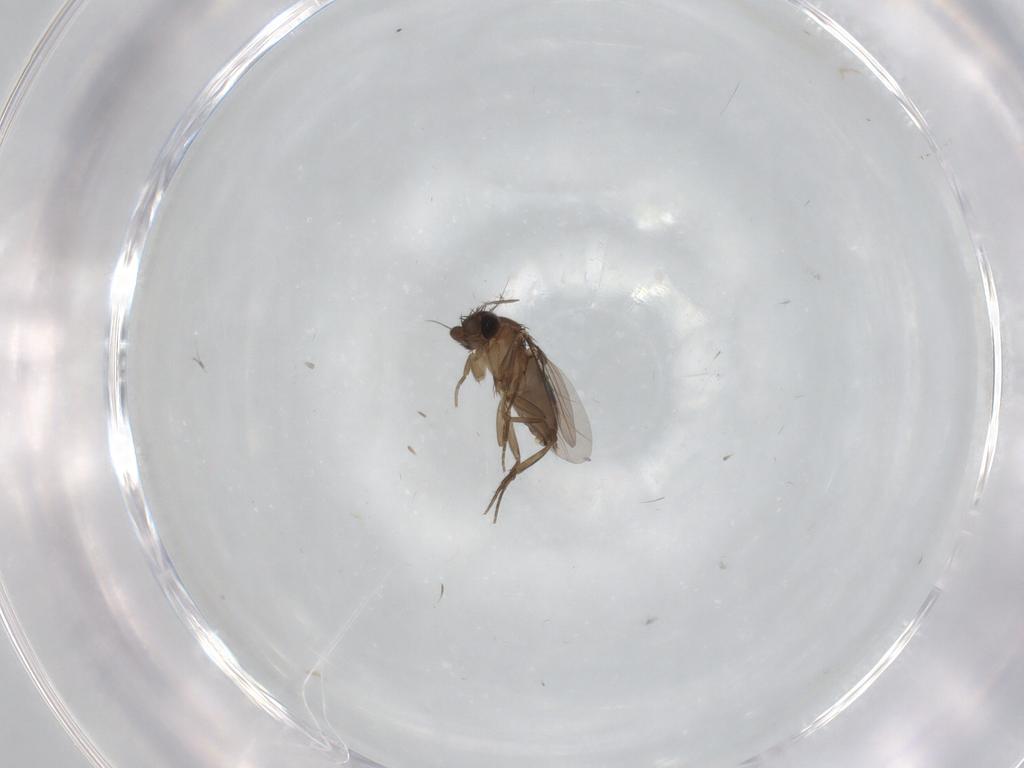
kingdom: Animalia
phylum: Arthropoda
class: Insecta
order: Diptera
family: Phoridae
